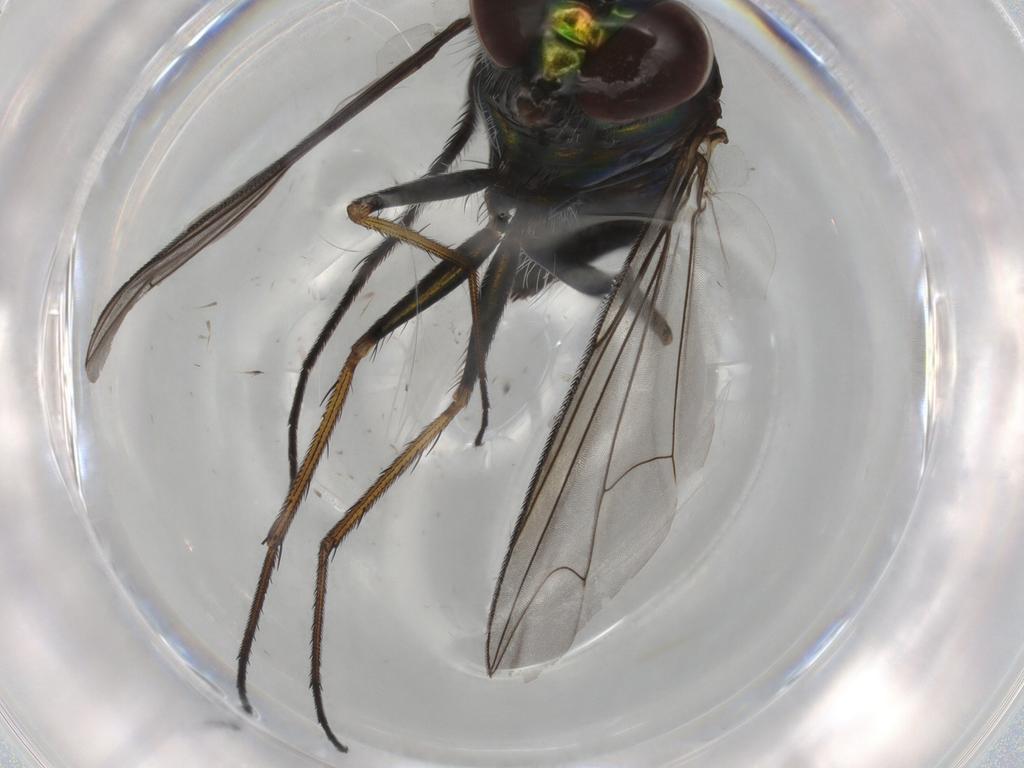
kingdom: Animalia
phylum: Arthropoda
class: Insecta
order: Diptera
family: Dolichopodidae
